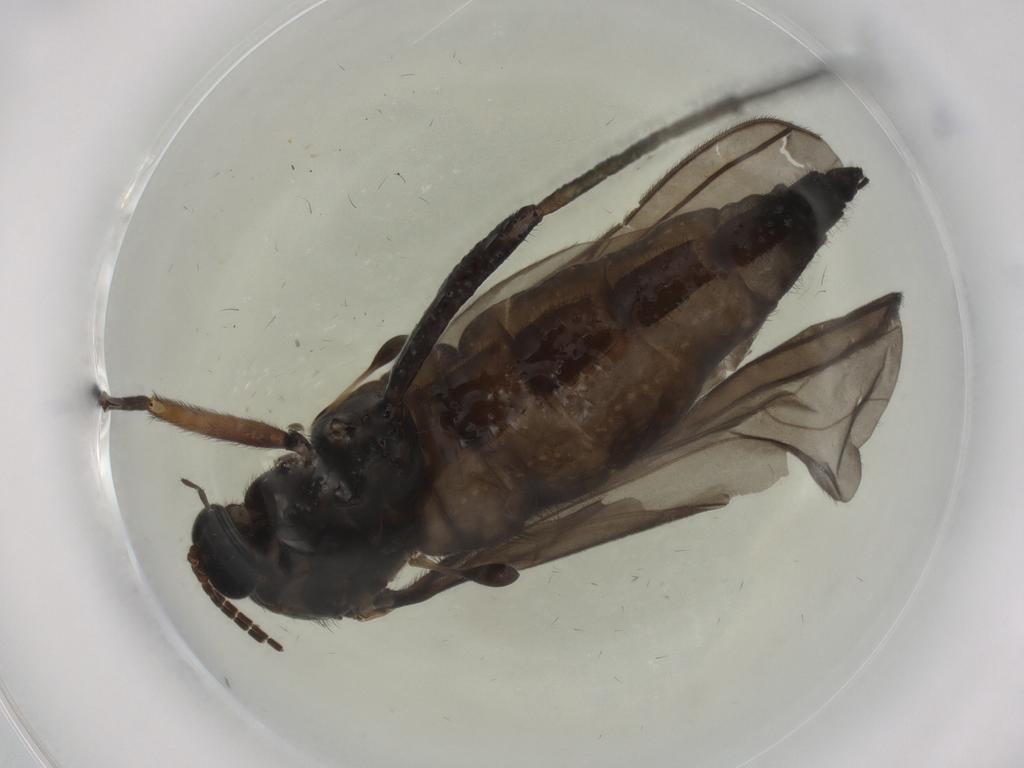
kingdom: Animalia
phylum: Arthropoda
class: Insecta
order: Diptera
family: Sciaridae
